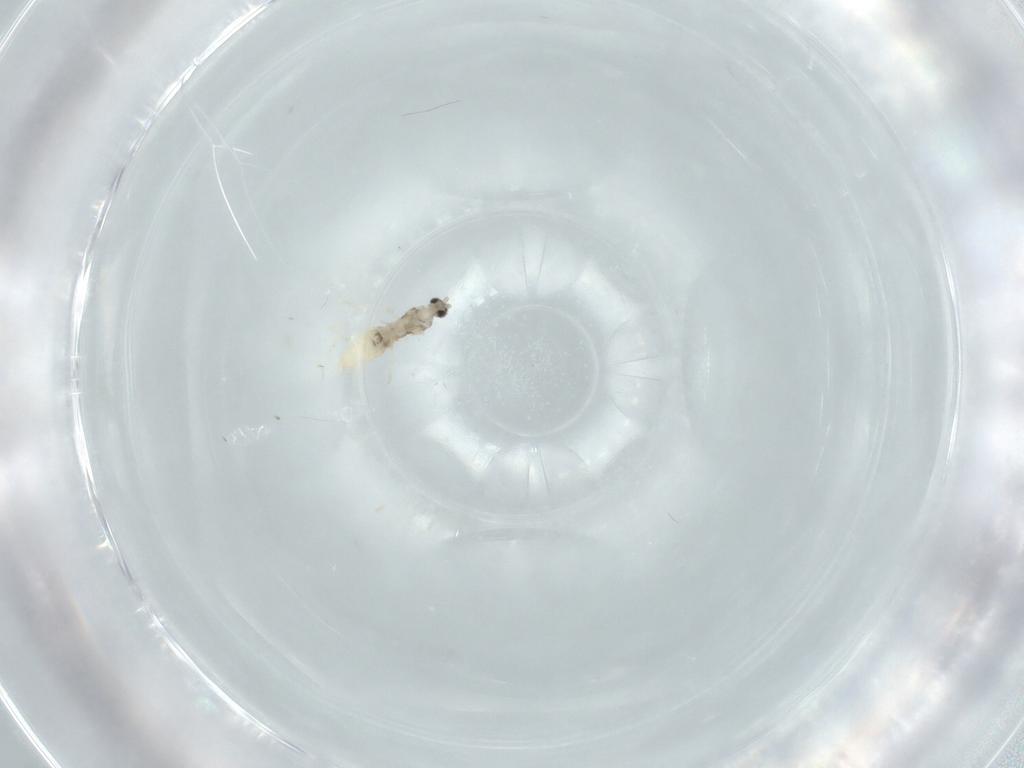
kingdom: Animalia
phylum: Arthropoda
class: Insecta
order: Diptera
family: Cecidomyiidae
